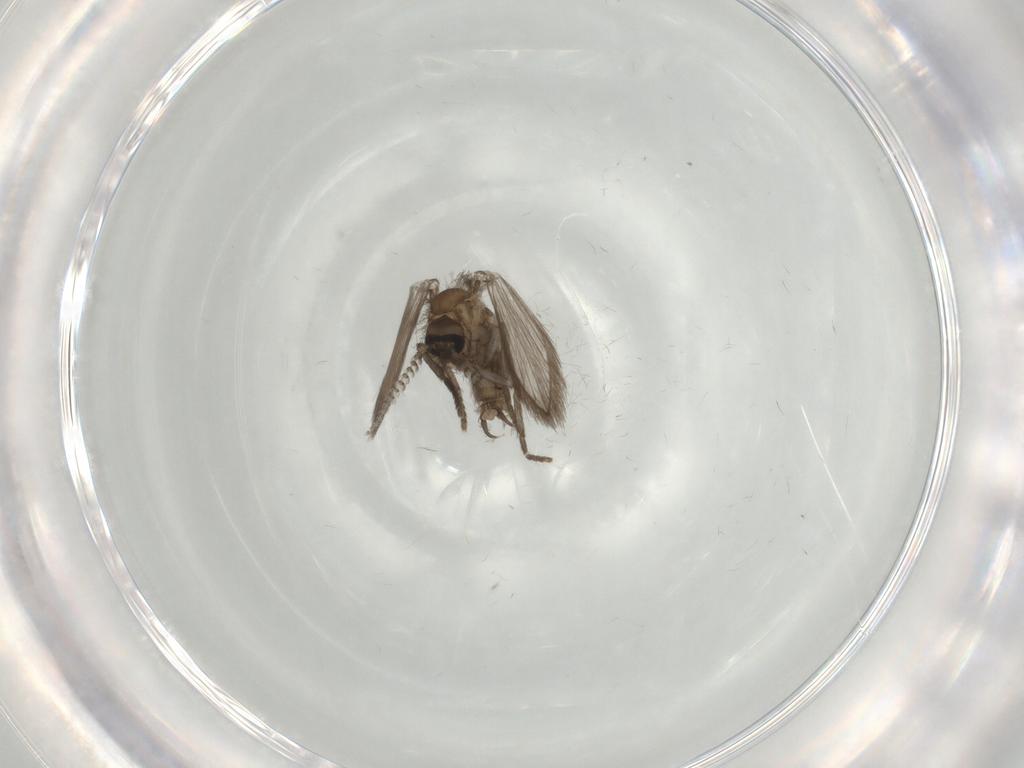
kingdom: Animalia
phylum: Arthropoda
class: Insecta
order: Diptera
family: Psychodidae
